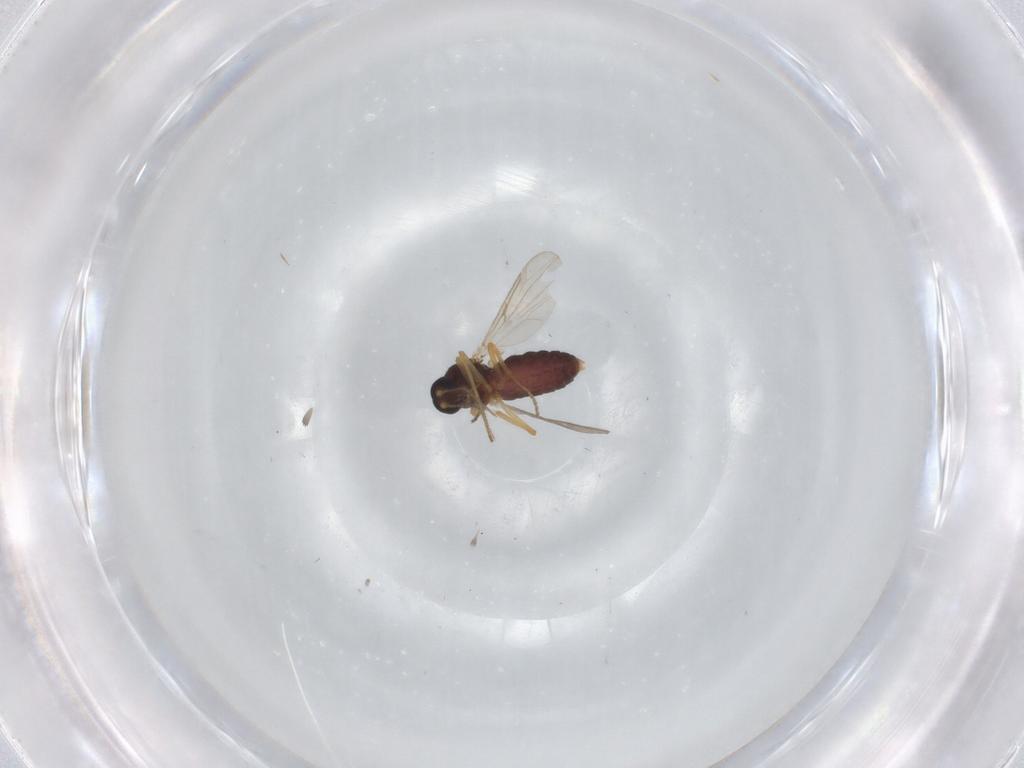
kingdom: Animalia
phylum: Arthropoda
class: Insecta
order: Diptera
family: Ceratopogonidae
